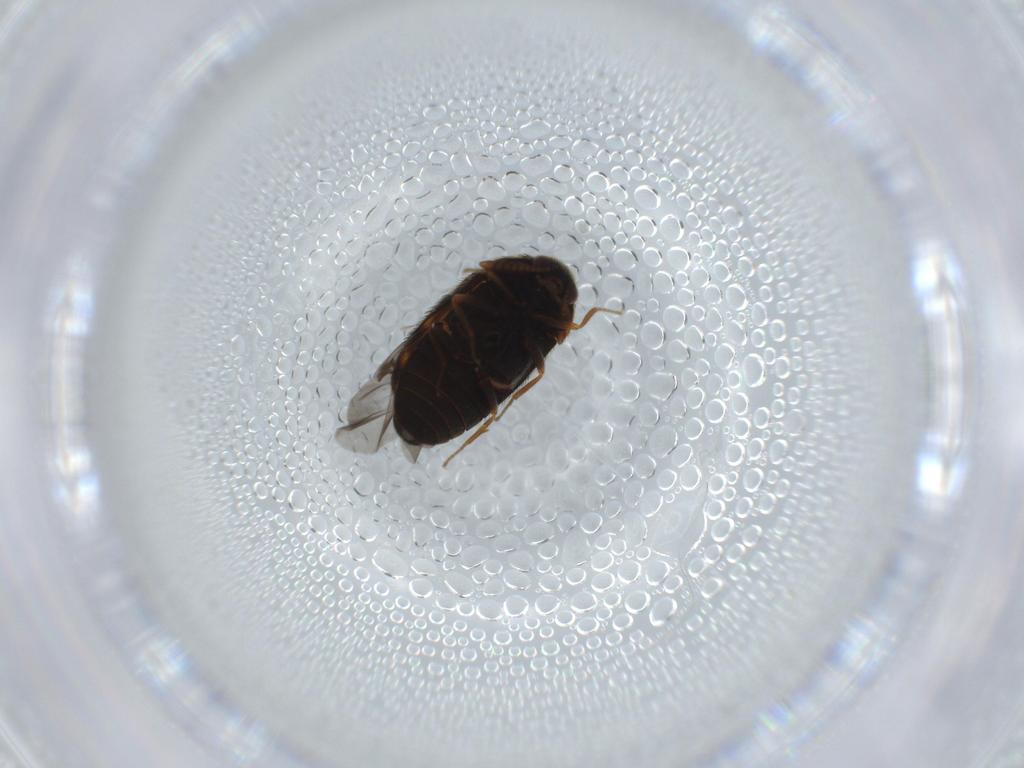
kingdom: Animalia
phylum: Arthropoda
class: Insecta
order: Coleoptera
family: Dermestidae
